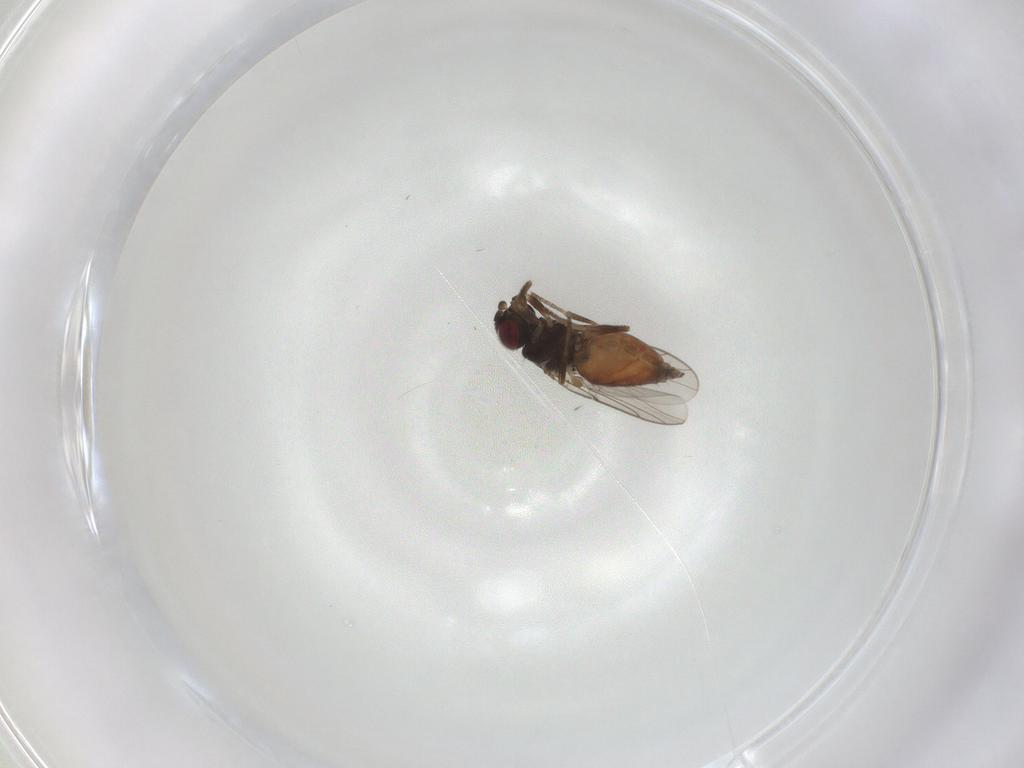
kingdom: Animalia
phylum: Arthropoda
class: Insecta
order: Diptera
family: Chloropidae
